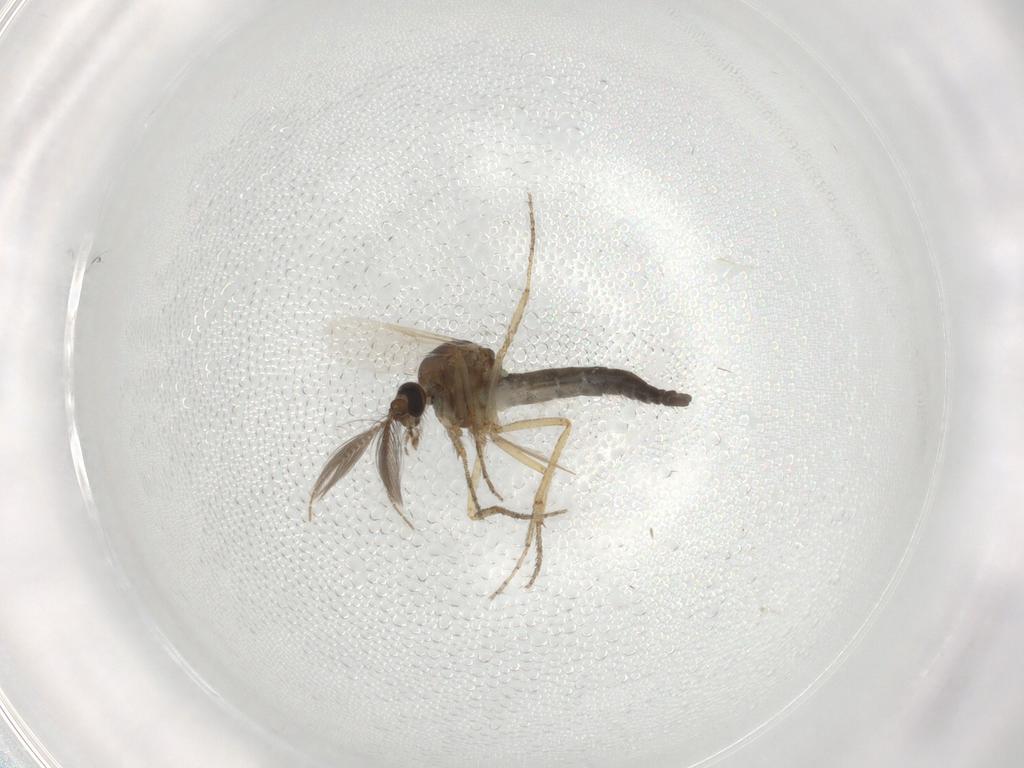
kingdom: Animalia
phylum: Arthropoda
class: Insecta
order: Diptera
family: Ceratopogonidae
